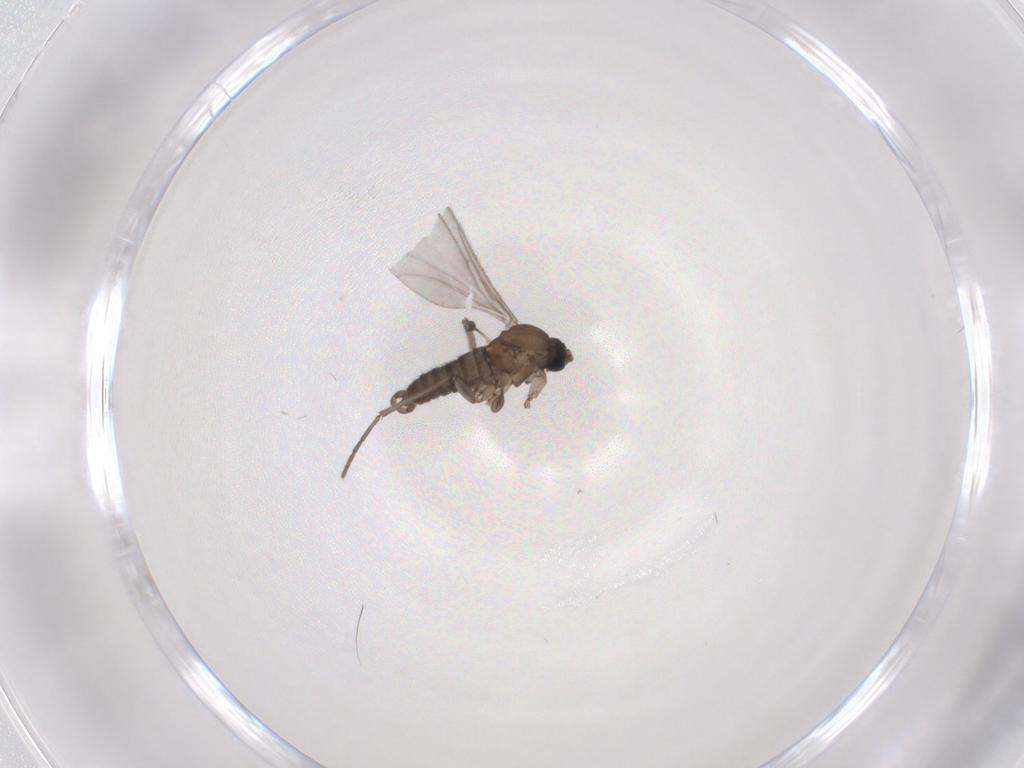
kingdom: Animalia
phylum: Arthropoda
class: Insecta
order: Diptera
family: Sciaridae
